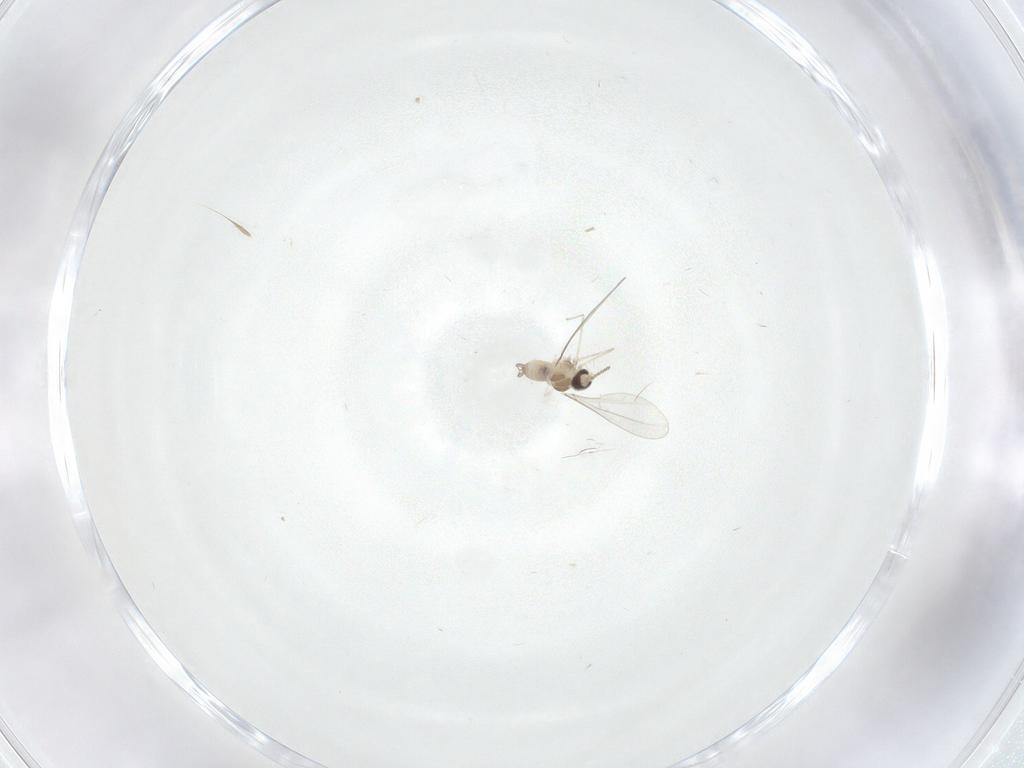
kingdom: Animalia
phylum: Arthropoda
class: Insecta
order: Diptera
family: Cecidomyiidae
